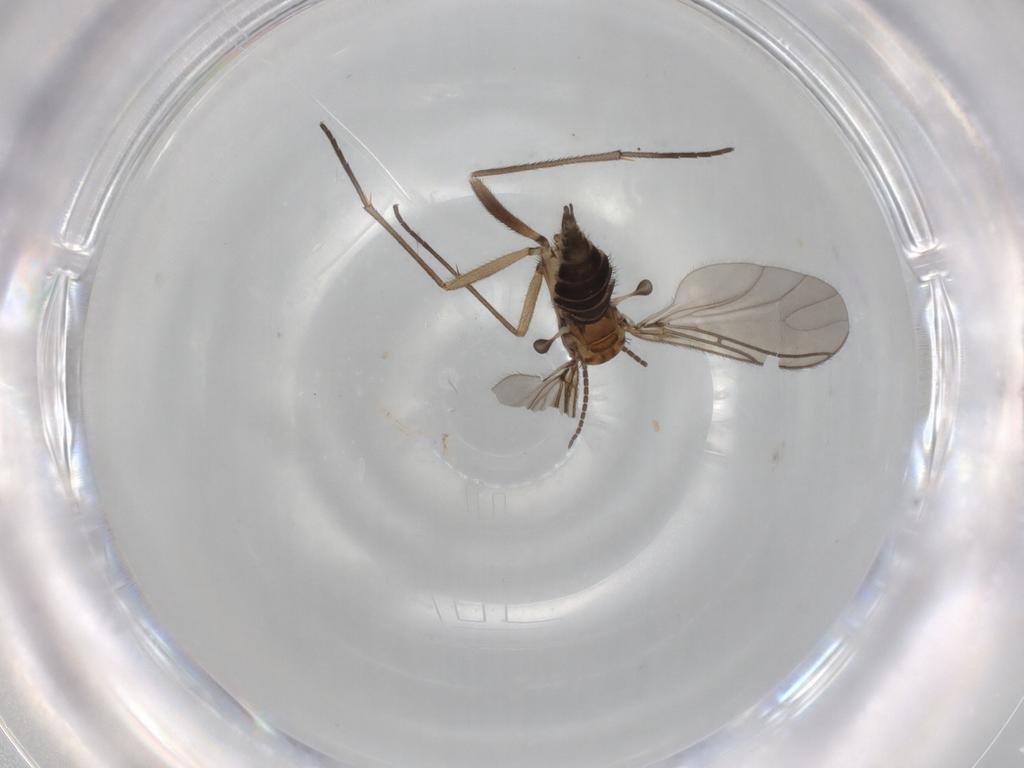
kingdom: Animalia
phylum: Arthropoda
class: Insecta
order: Diptera
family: Sciaridae
